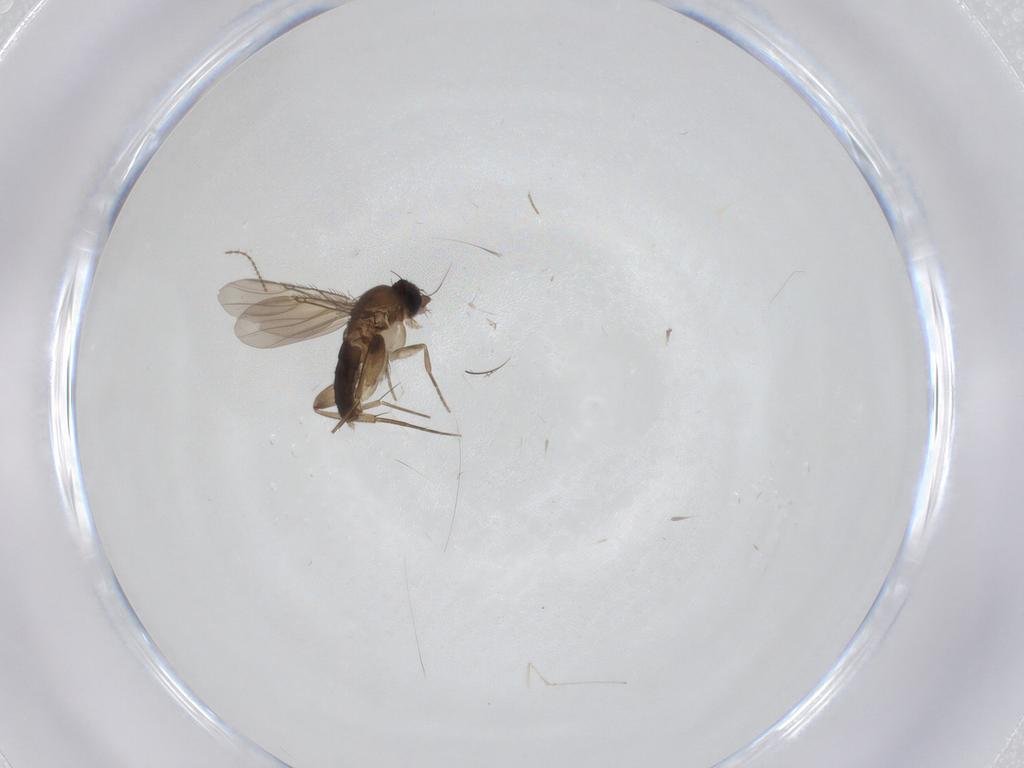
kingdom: Animalia
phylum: Arthropoda
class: Insecta
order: Diptera
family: Phoridae
